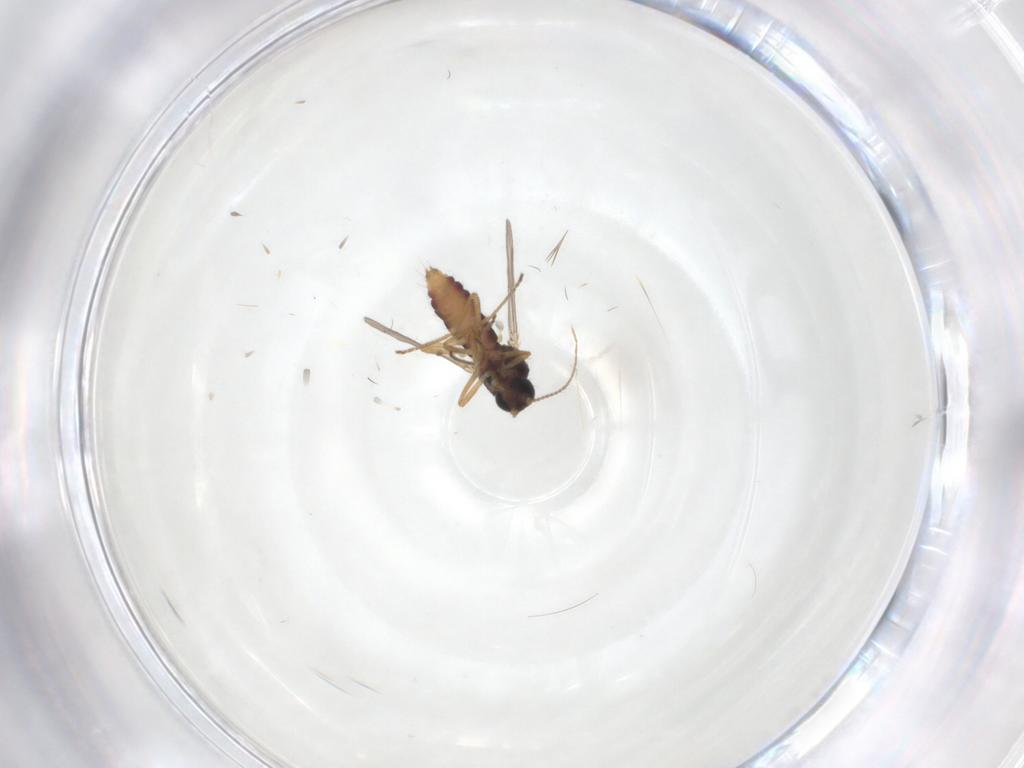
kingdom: Animalia
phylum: Arthropoda
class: Insecta
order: Diptera
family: Ceratopogonidae
